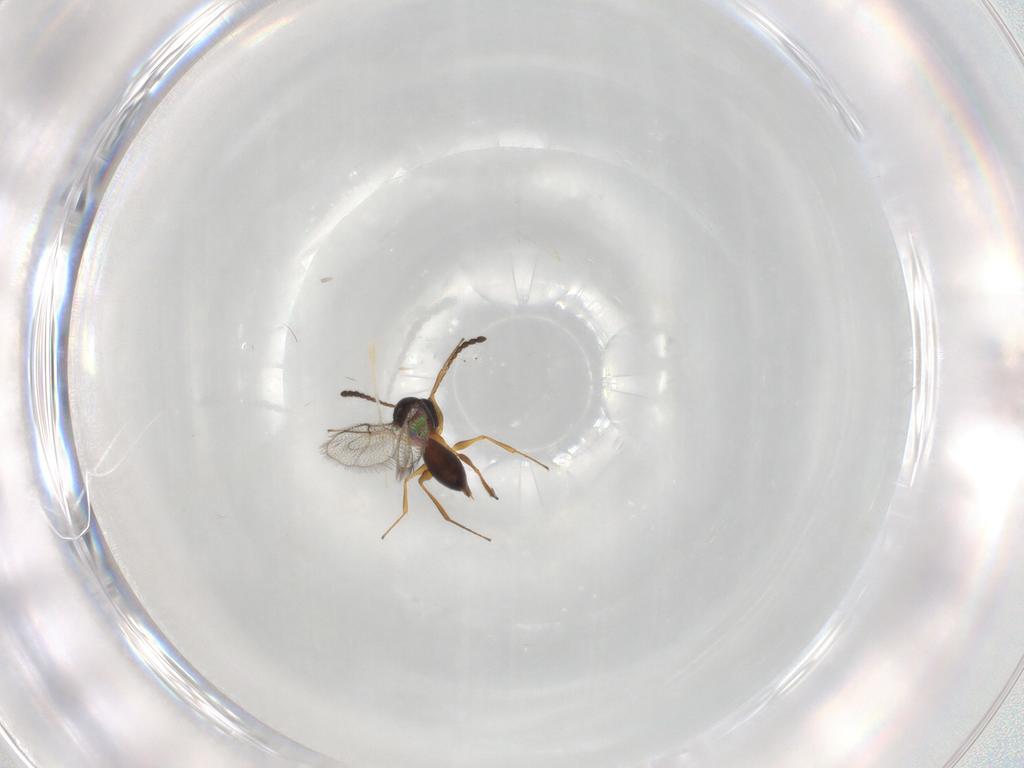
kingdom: Animalia
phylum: Arthropoda
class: Insecta
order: Hymenoptera
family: Figitidae
